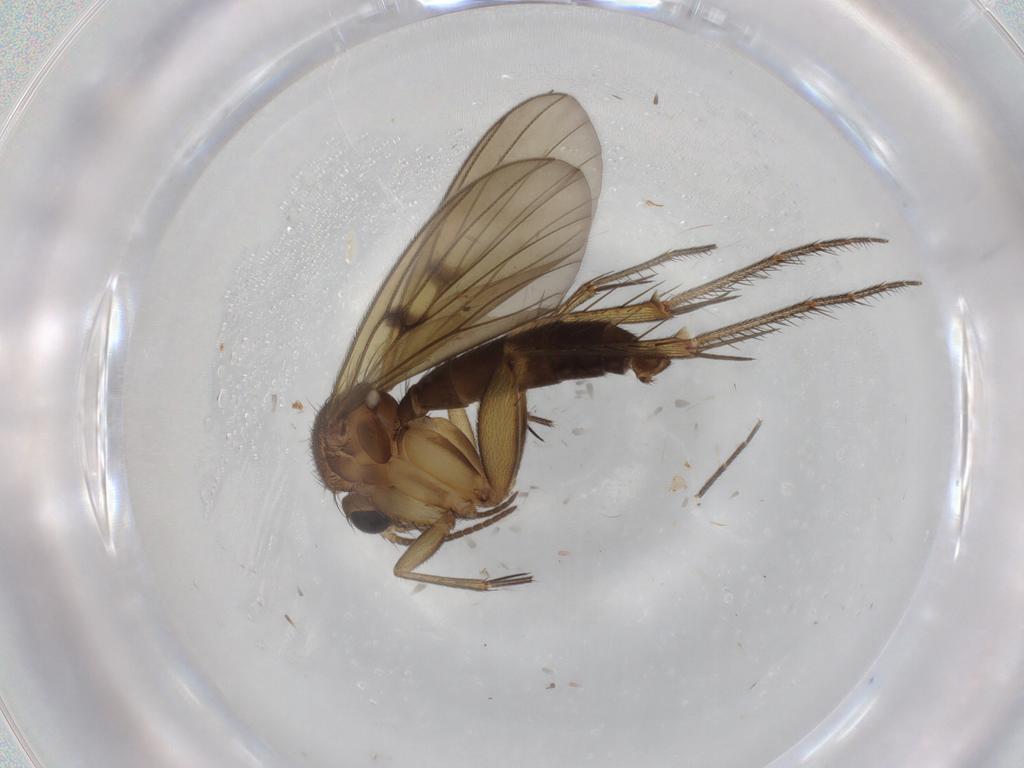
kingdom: Animalia
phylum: Arthropoda
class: Insecta
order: Diptera
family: Mycetophilidae
